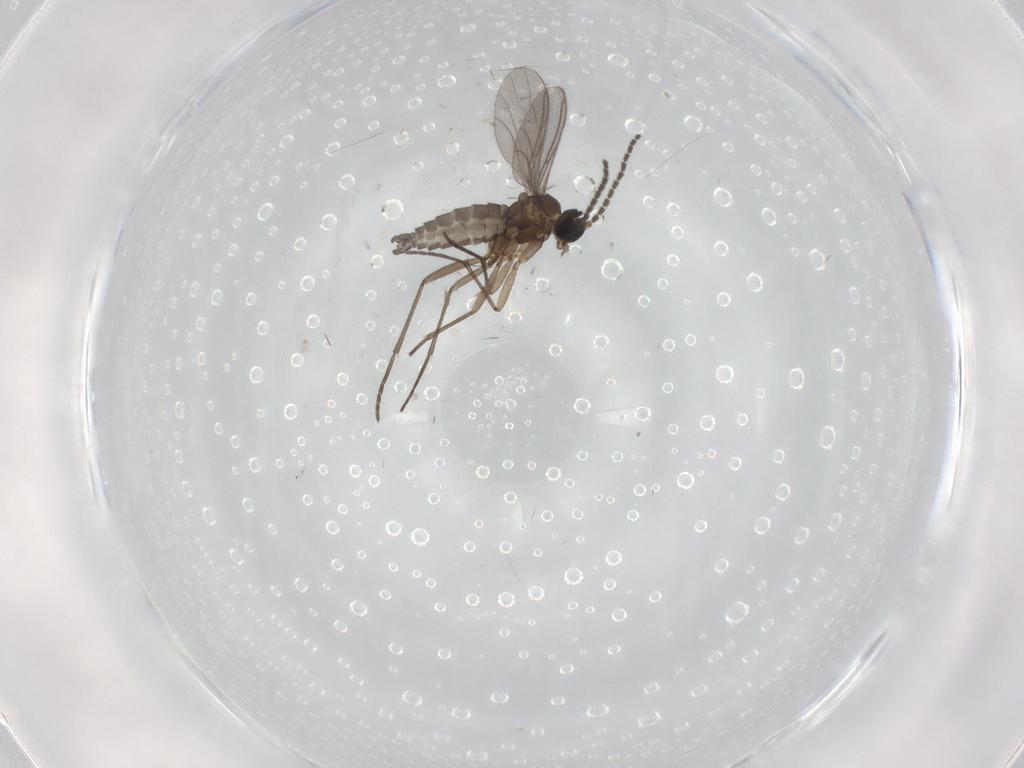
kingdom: Animalia
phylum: Arthropoda
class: Insecta
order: Diptera
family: Sciaridae
